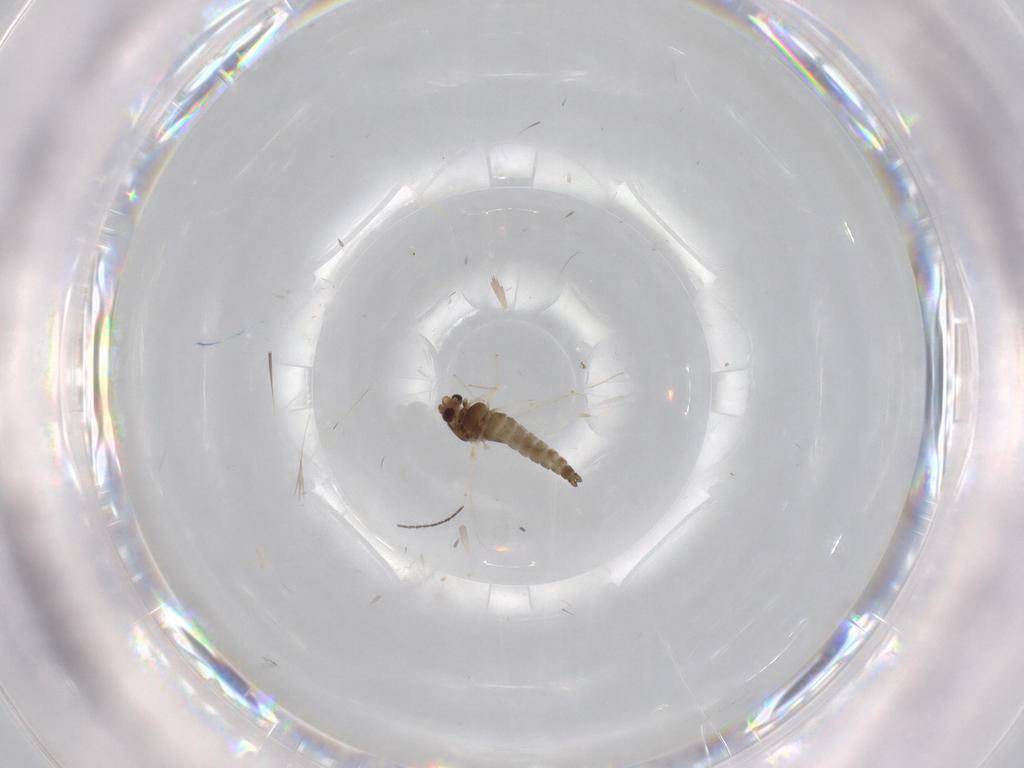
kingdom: Animalia
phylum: Arthropoda
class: Insecta
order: Diptera
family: Chironomidae
